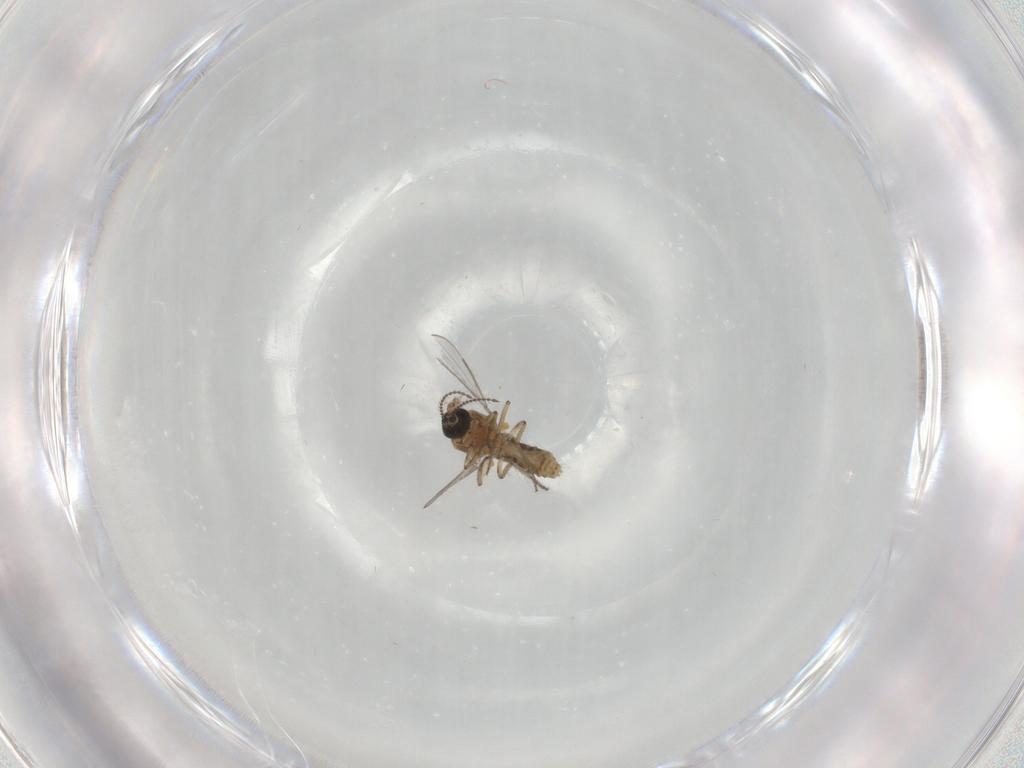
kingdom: Animalia
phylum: Arthropoda
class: Insecta
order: Diptera
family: Ceratopogonidae
